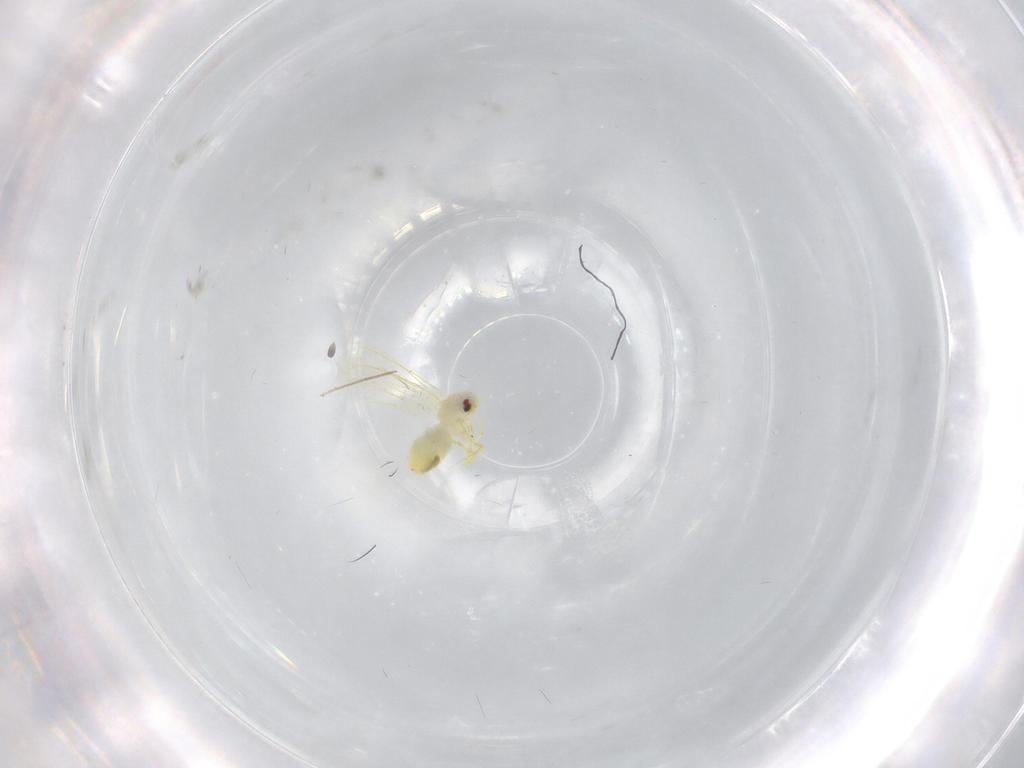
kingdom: Animalia
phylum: Arthropoda
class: Insecta
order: Hemiptera
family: Aleyrodidae
